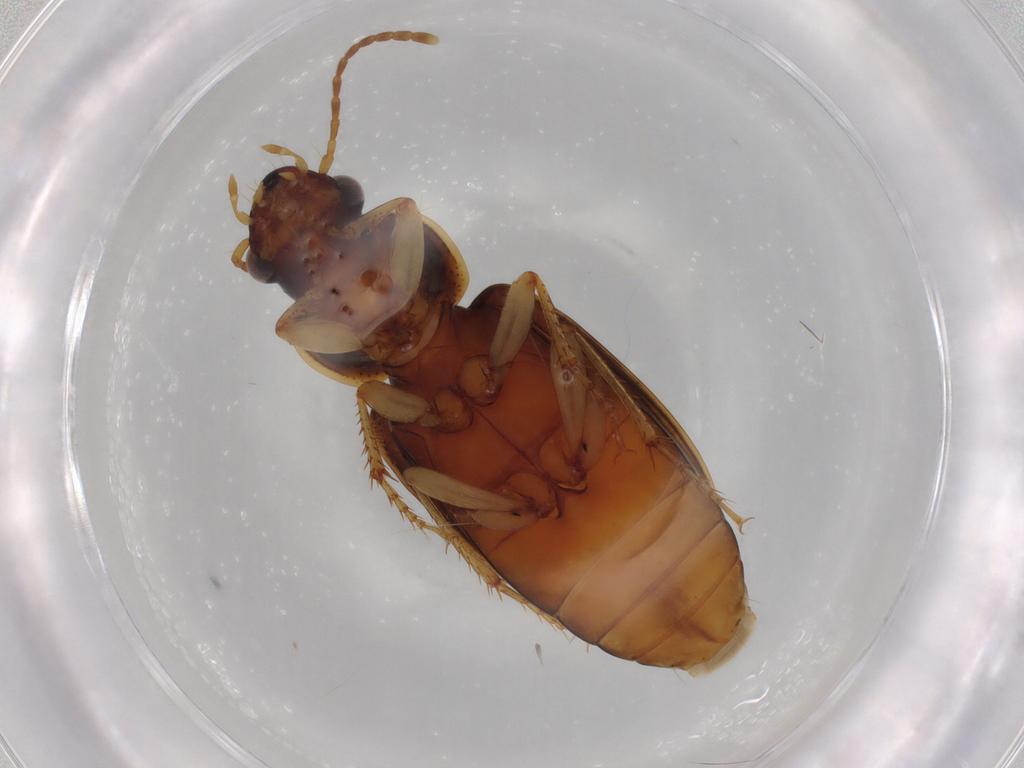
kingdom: Animalia
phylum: Arthropoda
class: Insecta
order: Coleoptera
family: Carabidae
